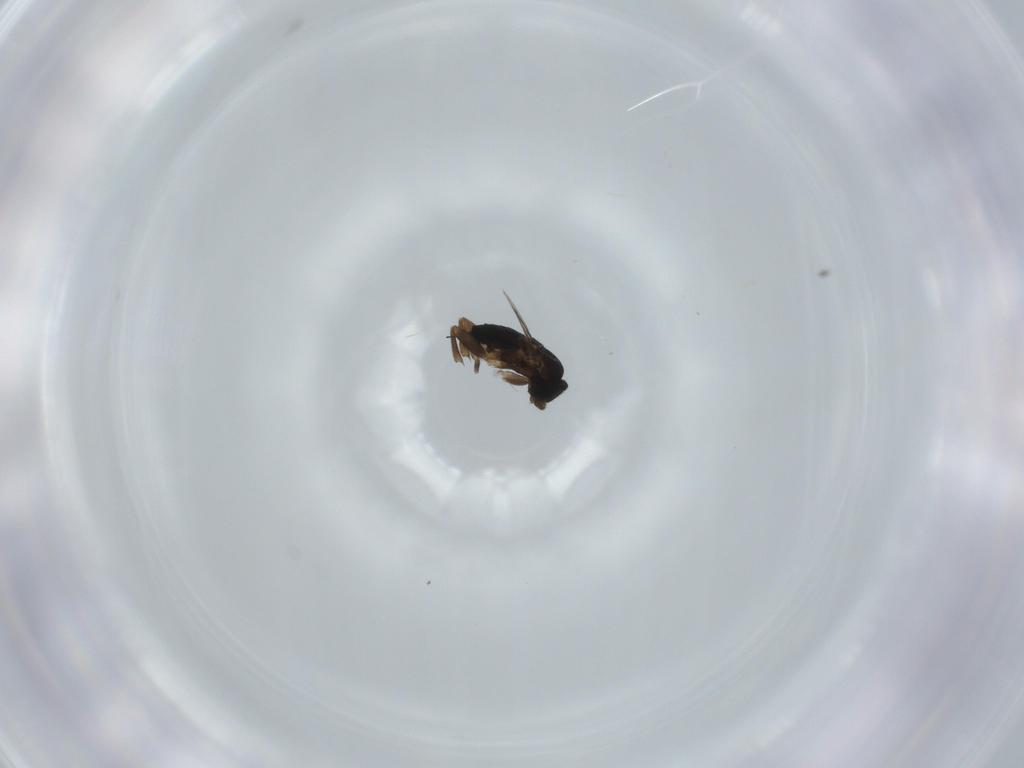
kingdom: Animalia
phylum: Arthropoda
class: Insecta
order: Diptera
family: Phoridae
